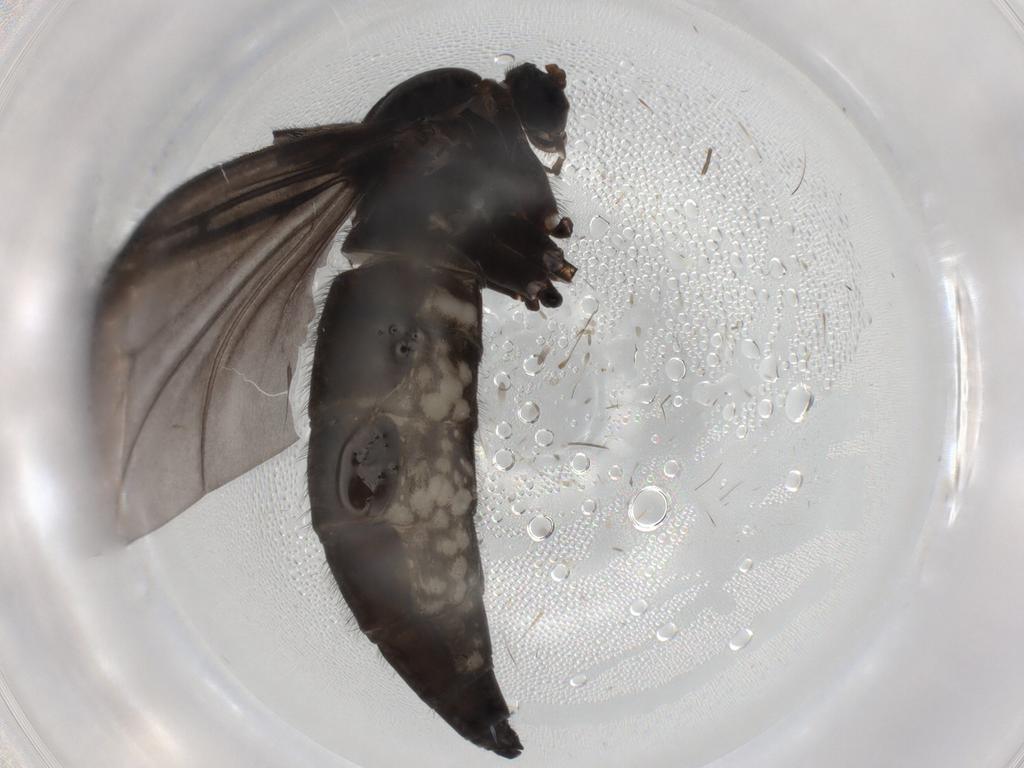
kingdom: Animalia
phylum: Arthropoda
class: Insecta
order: Diptera
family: Sciaridae
